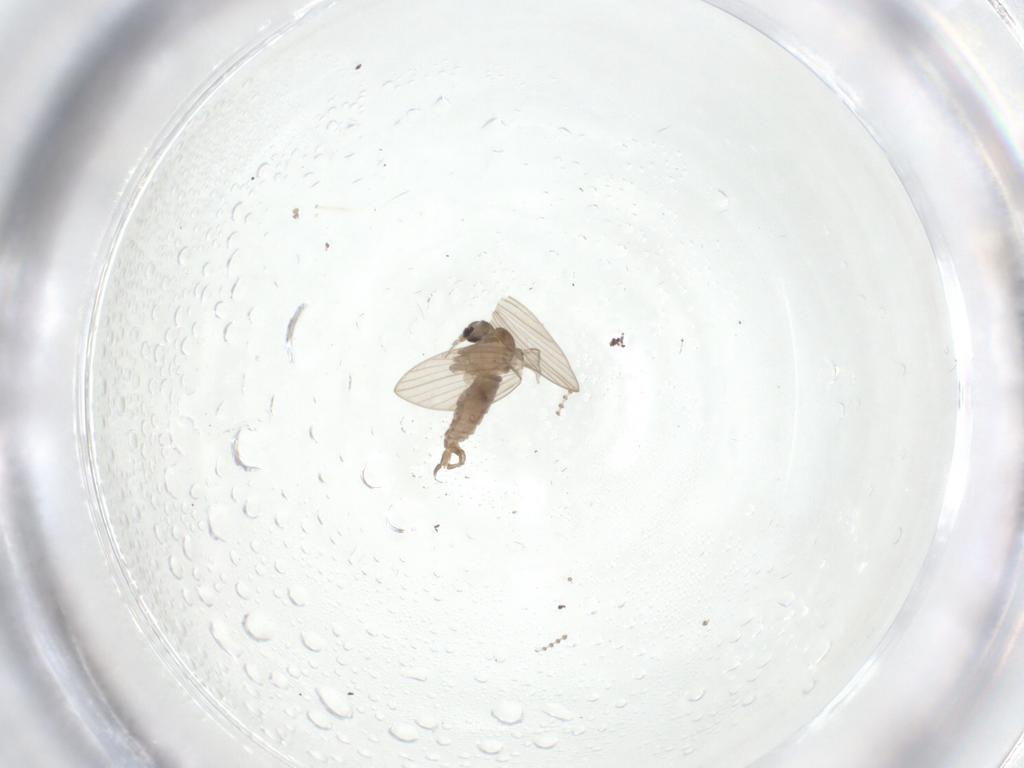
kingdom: Animalia
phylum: Arthropoda
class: Insecta
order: Diptera
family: Psychodidae
